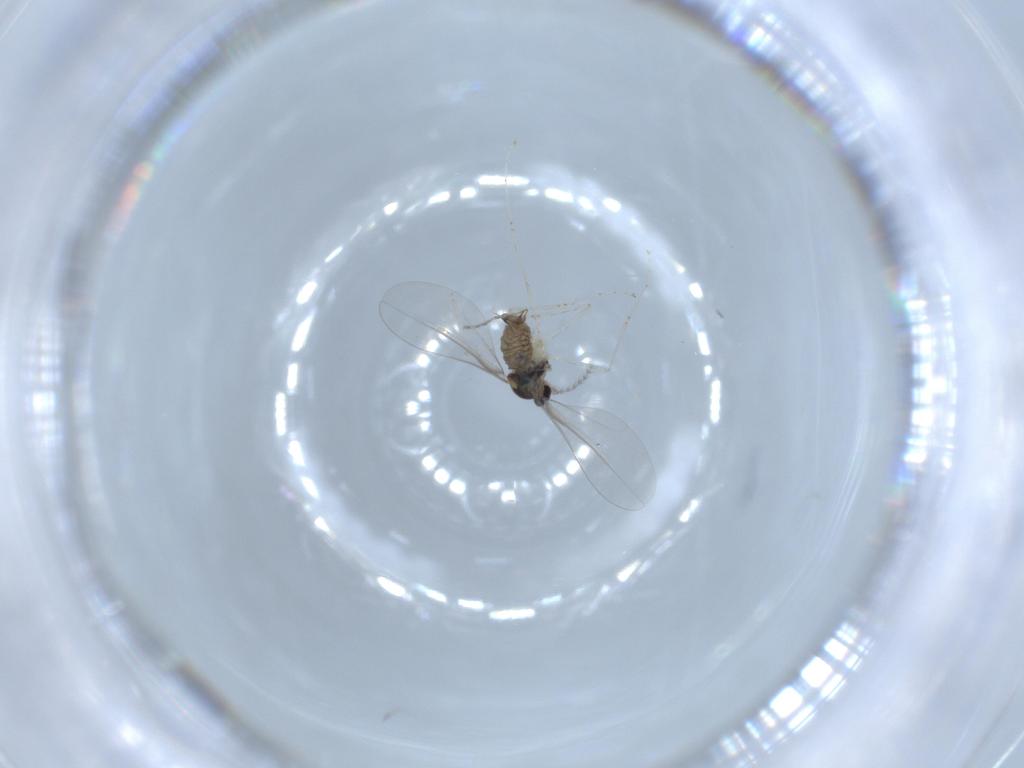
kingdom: Animalia
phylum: Arthropoda
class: Insecta
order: Diptera
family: Cecidomyiidae
